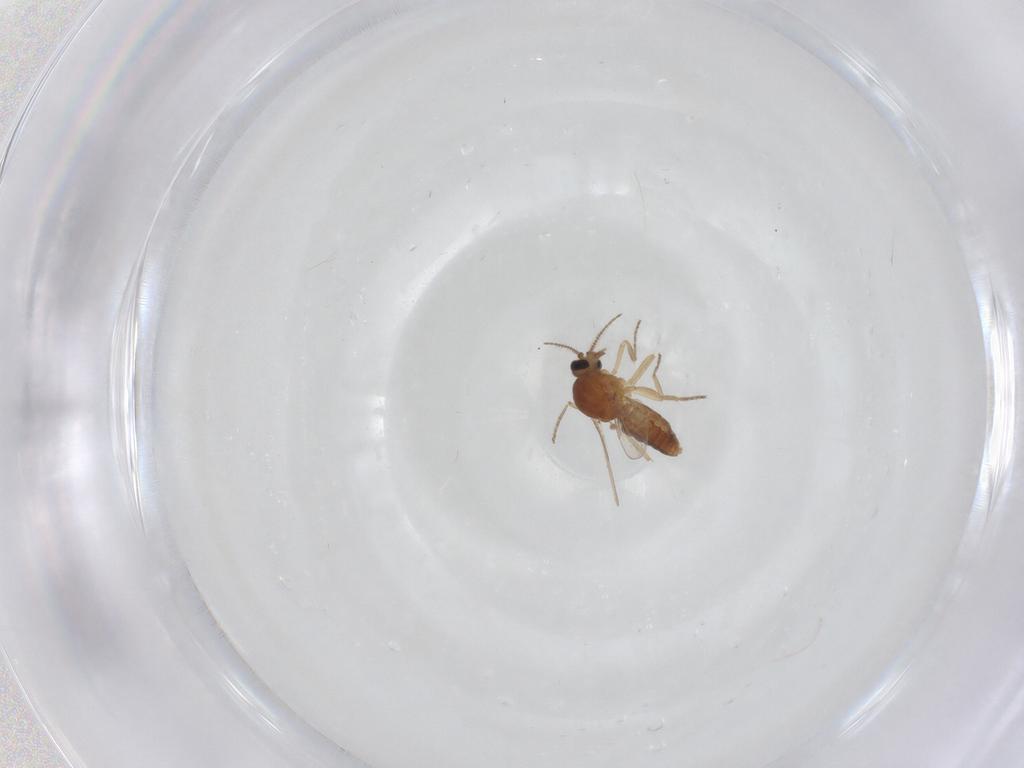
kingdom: Animalia
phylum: Arthropoda
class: Insecta
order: Diptera
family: Ceratopogonidae
